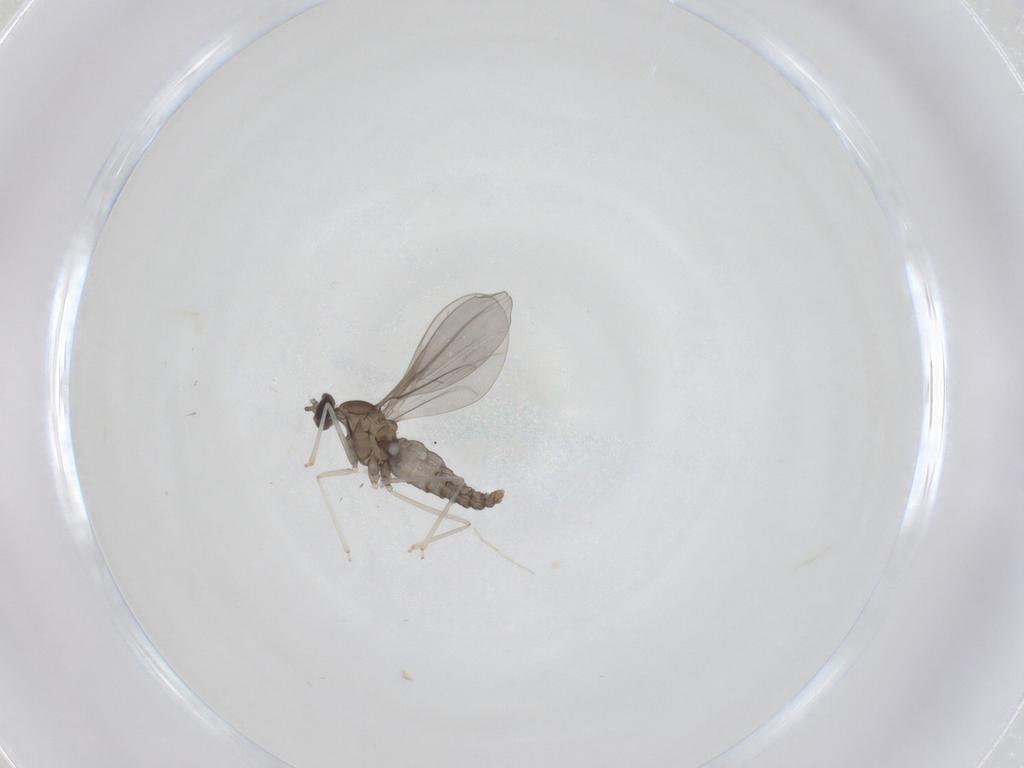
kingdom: Animalia
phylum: Arthropoda
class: Insecta
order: Diptera
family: Cecidomyiidae
